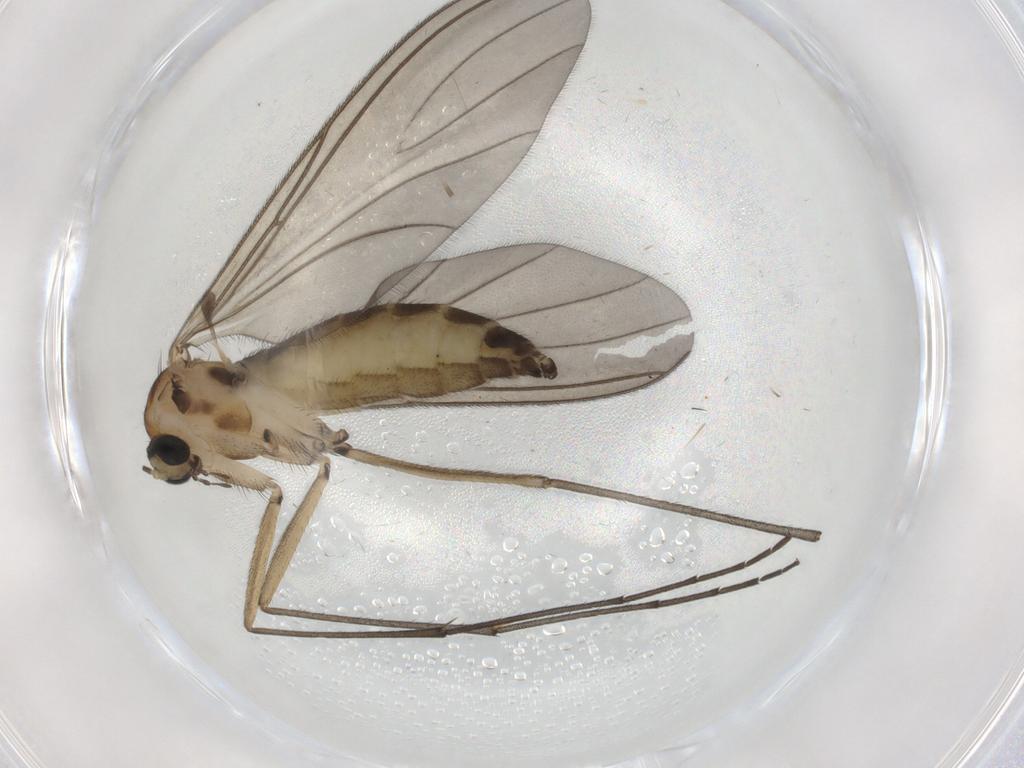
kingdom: Animalia
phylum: Arthropoda
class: Insecta
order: Diptera
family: Sciaridae
